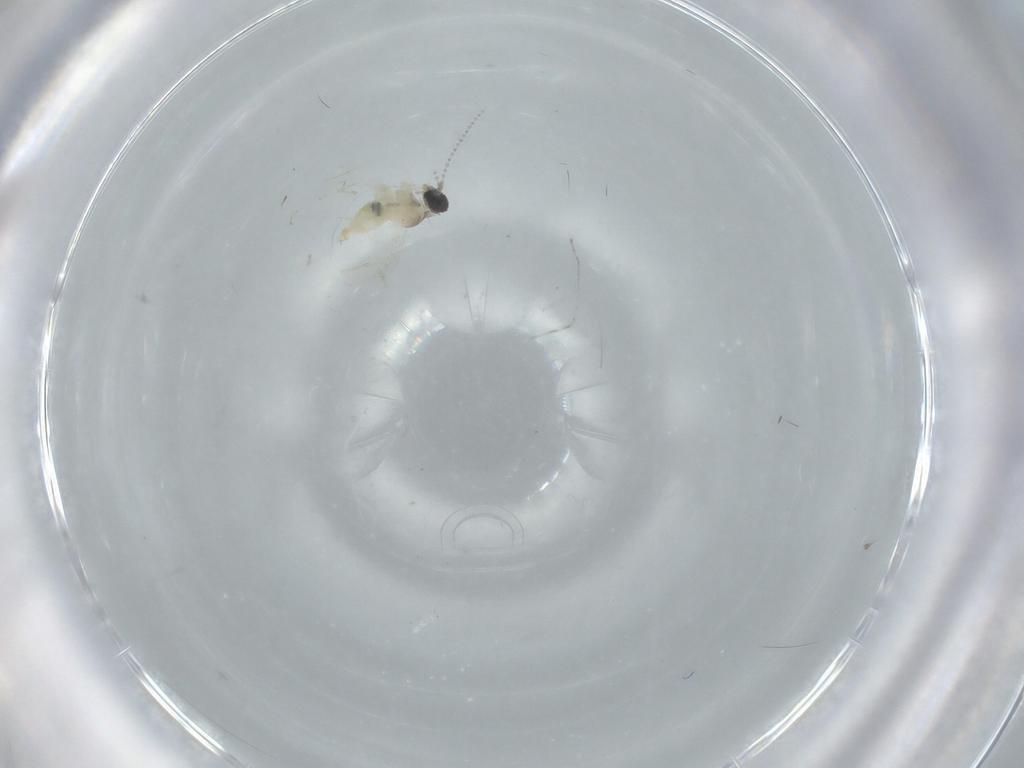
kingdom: Animalia
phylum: Arthropoda
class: Insecta
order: Diptera
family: Cecidomyiidae
